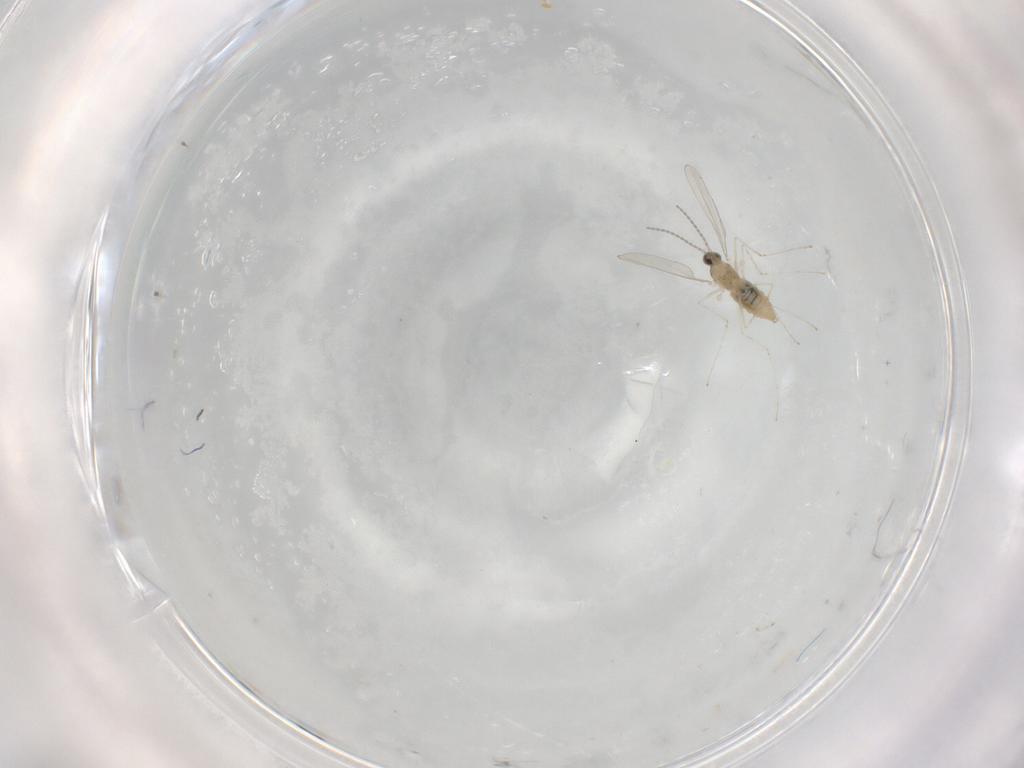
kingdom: Animalia
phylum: Arthropoda
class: Insecta
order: Diptera
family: Cecidomyiidae
